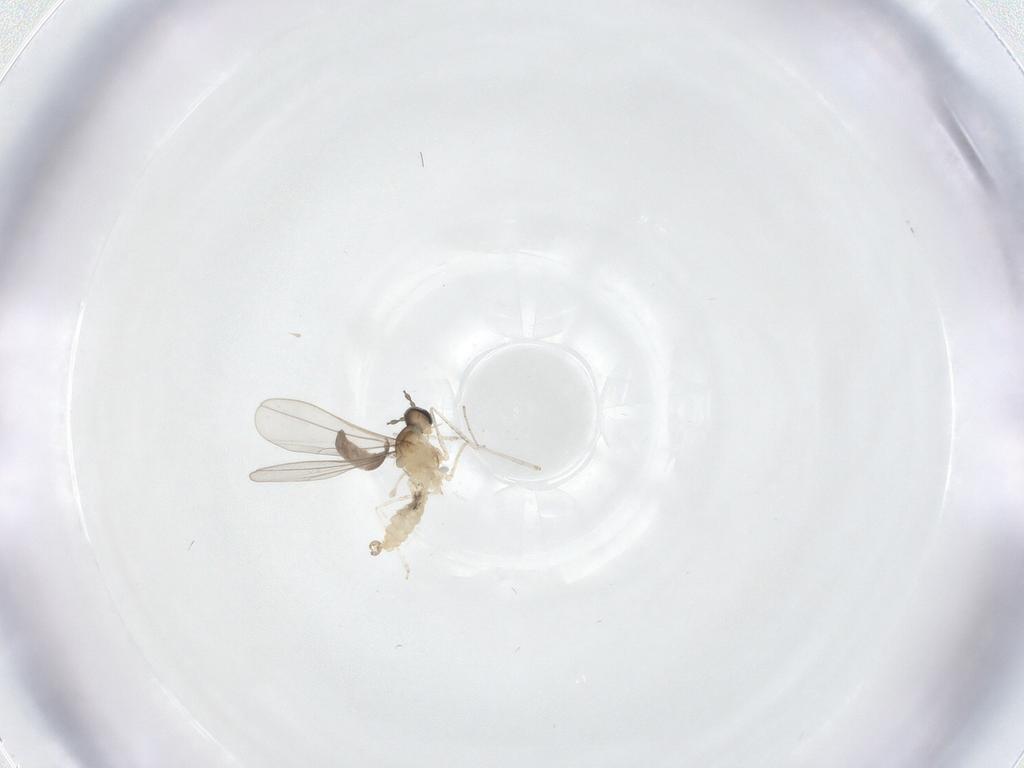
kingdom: Animalia
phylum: Arthropoda
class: Insecta
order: Diptera
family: Cecidomyiidae
